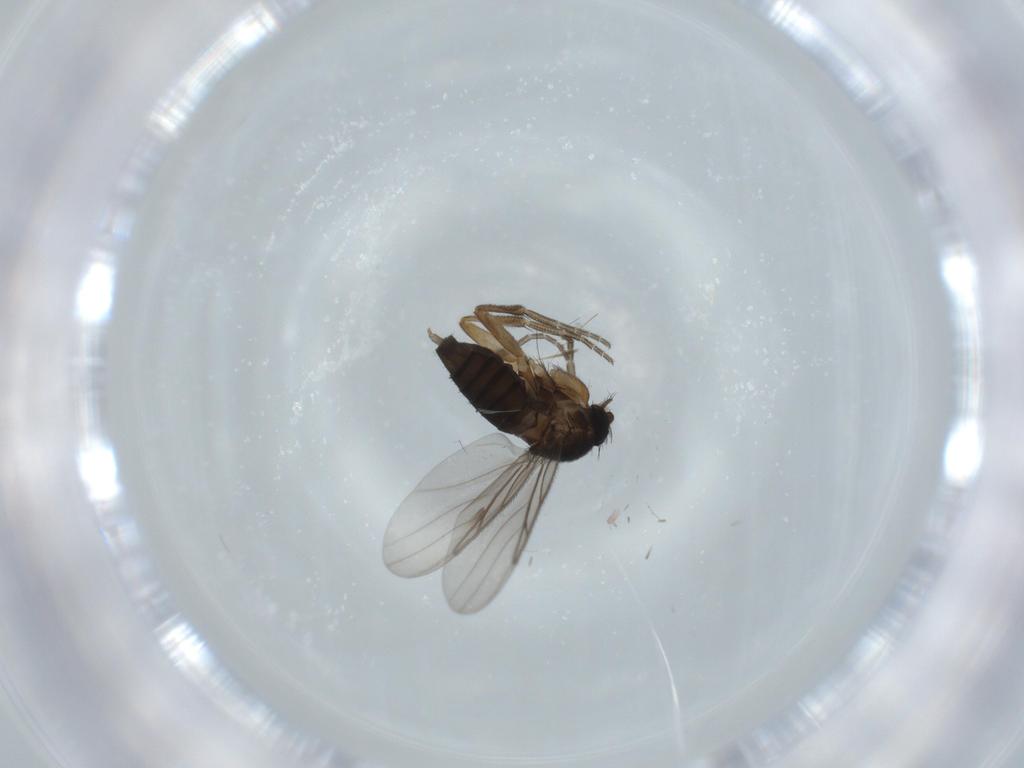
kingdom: Animalia
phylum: Arthropoda
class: Insecta
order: Diptera
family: Phoridae
